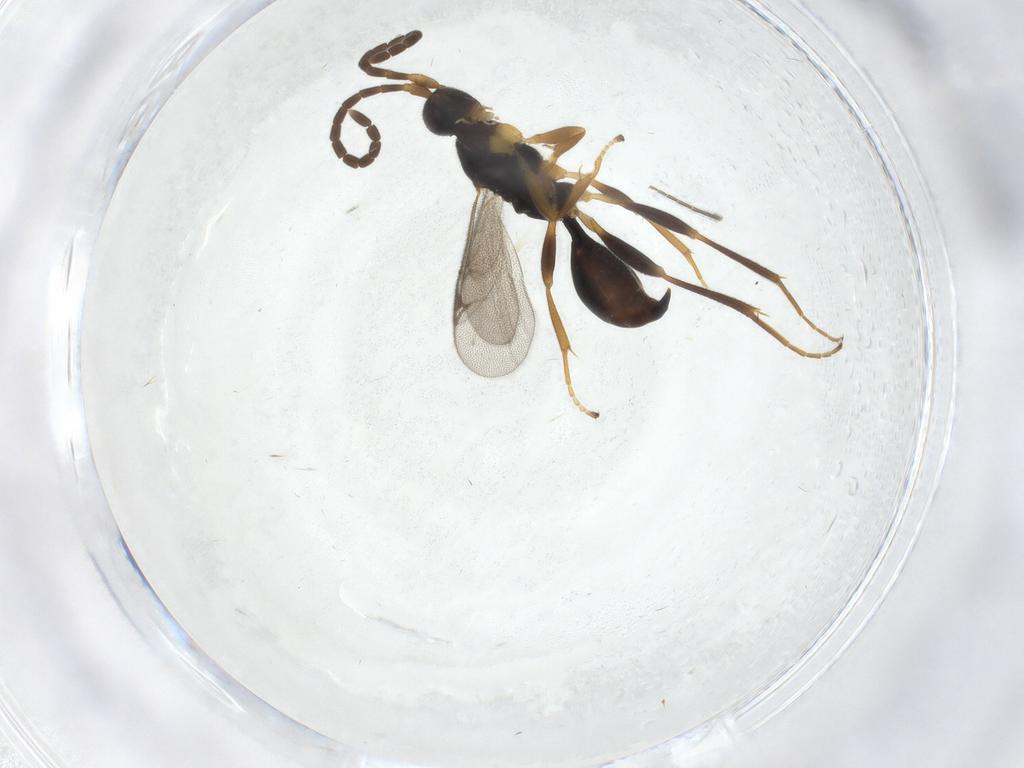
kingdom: Animalia
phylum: Arthropoda
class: Insecta
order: Hymenoptera
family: Proctotrupidae
